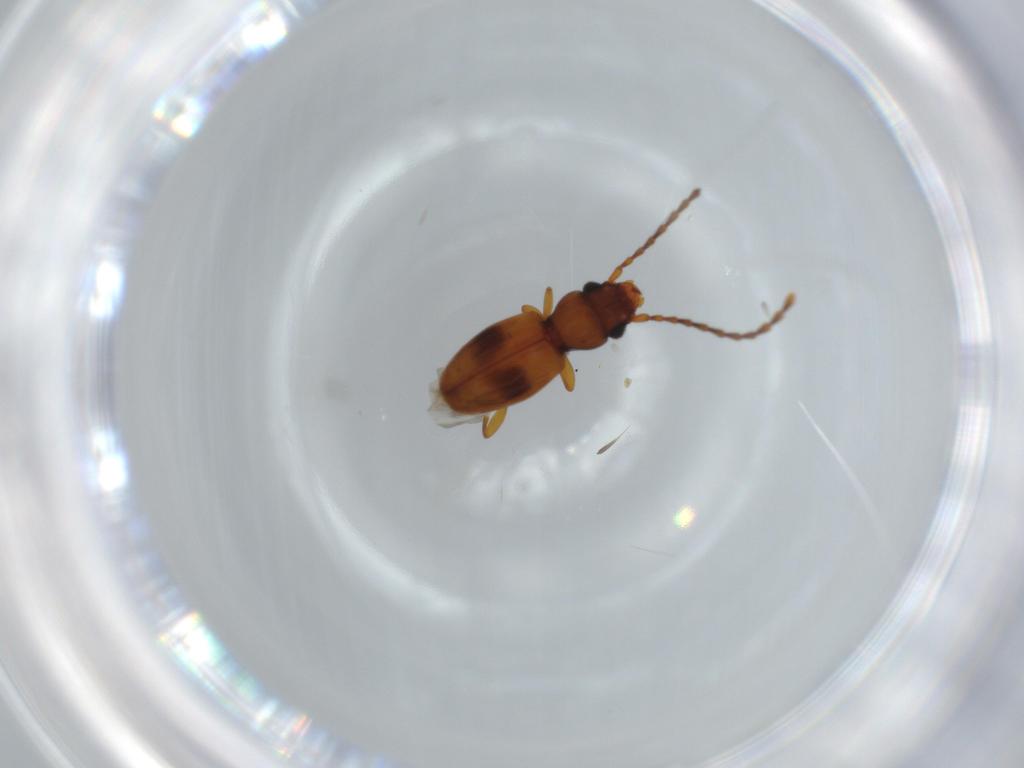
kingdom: Animalia
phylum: Arthropoda
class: Insecta
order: Coleoptera
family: Laemophloeidae
